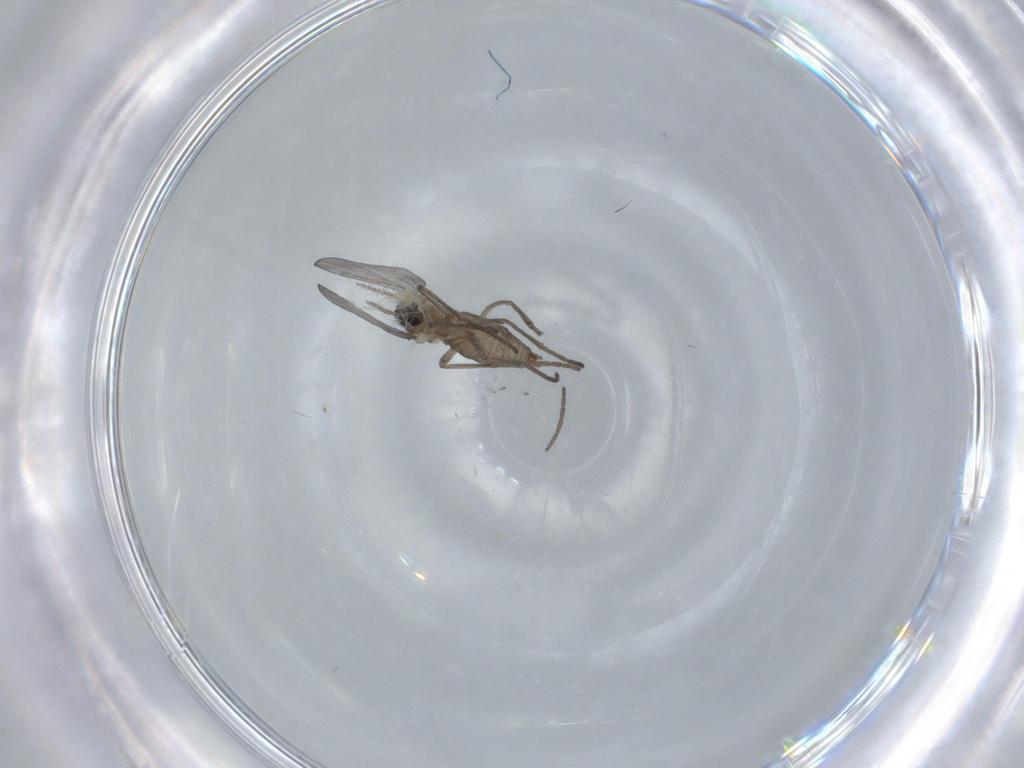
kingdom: Animalia
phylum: Arthropoda
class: Insecta
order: Diptera
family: Cecidomyiidae
